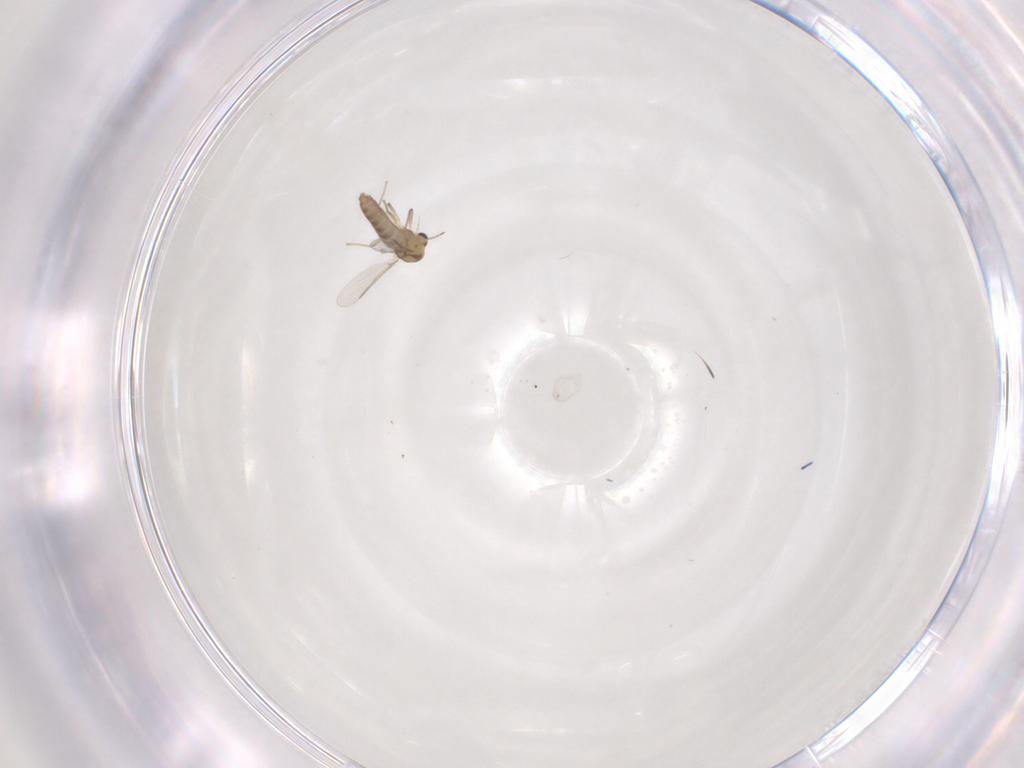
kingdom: Animalia
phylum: Arthropoda
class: Insecta
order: Diptera
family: Chironomidae
